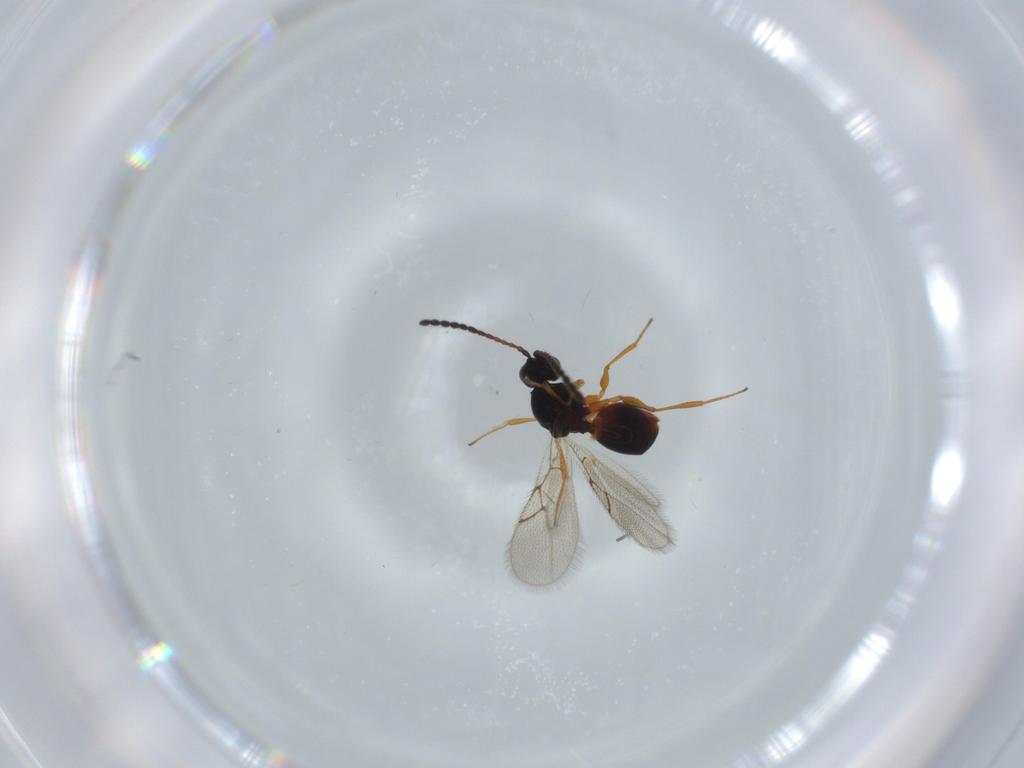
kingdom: Animalia
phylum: Arthropoda
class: Insecta
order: Hymenoptera
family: Figitidae
